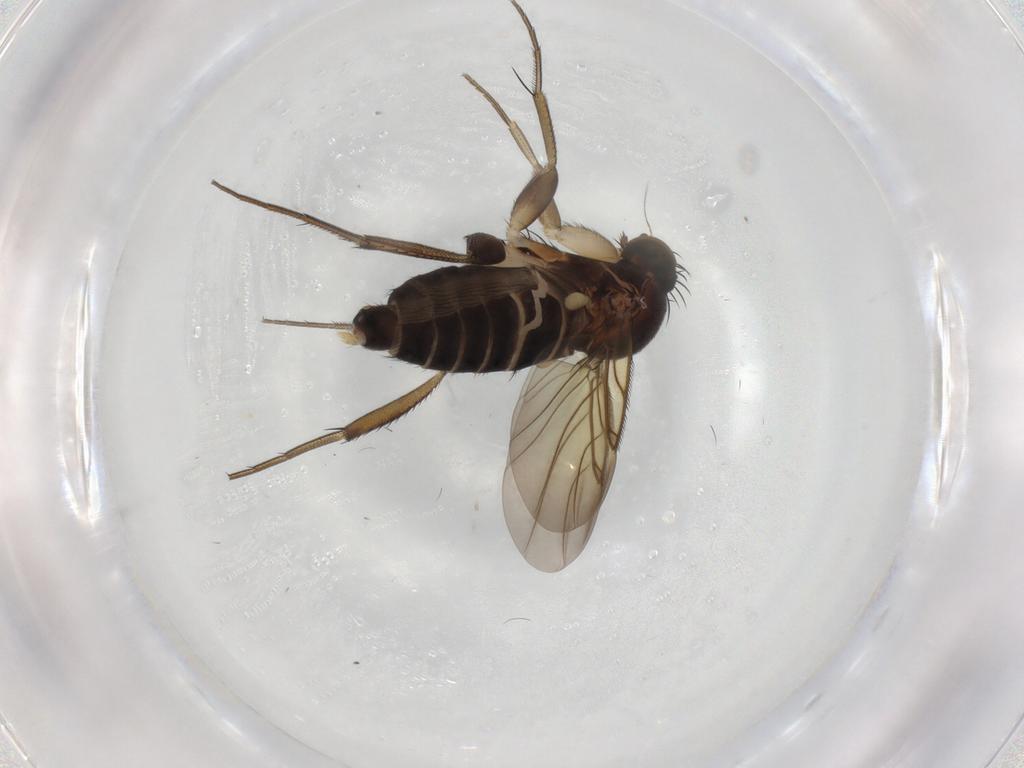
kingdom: Animalia
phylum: Arthropoda
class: Insecta
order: Diptera
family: Phoridae
